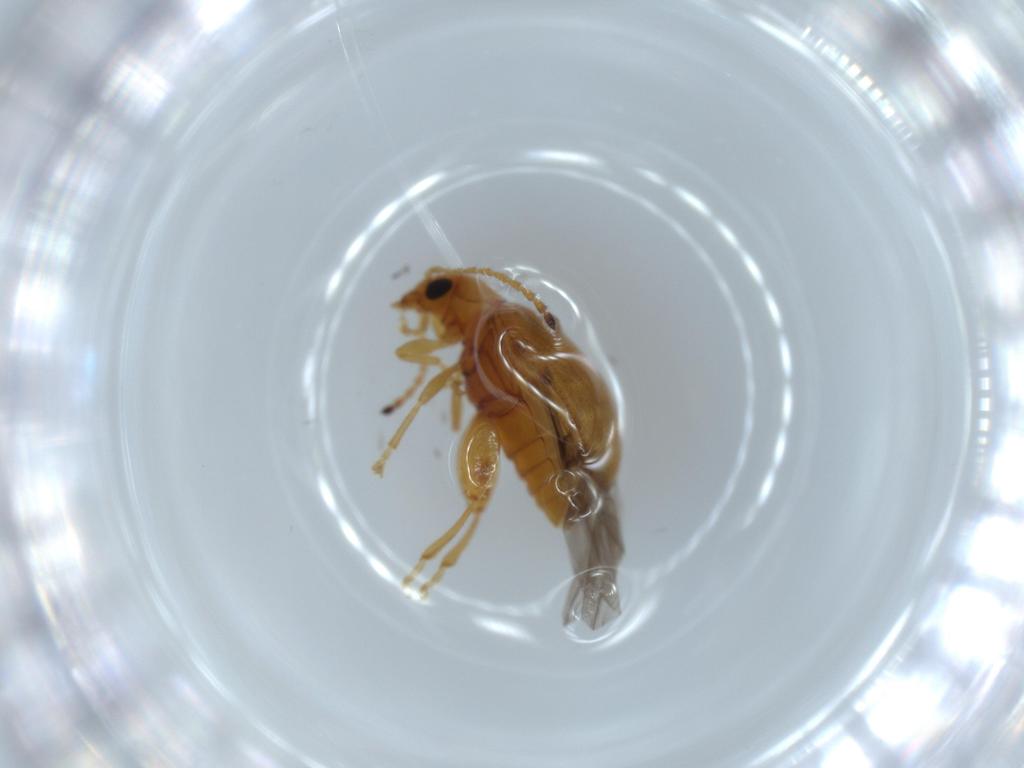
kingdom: Animalia
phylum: Arthropoda
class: Insecta
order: Coleoptera
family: Chrysomelidae
